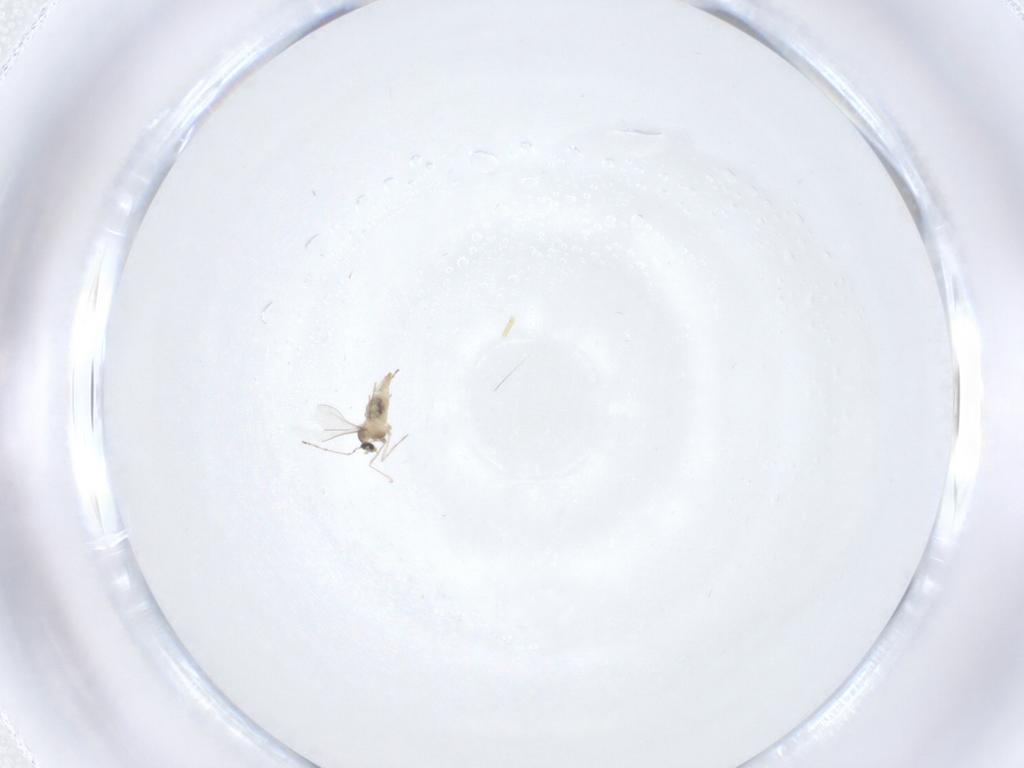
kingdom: Animalia
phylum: Arthropoda
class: Insecta
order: Diptera
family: Cecidomyiidae
